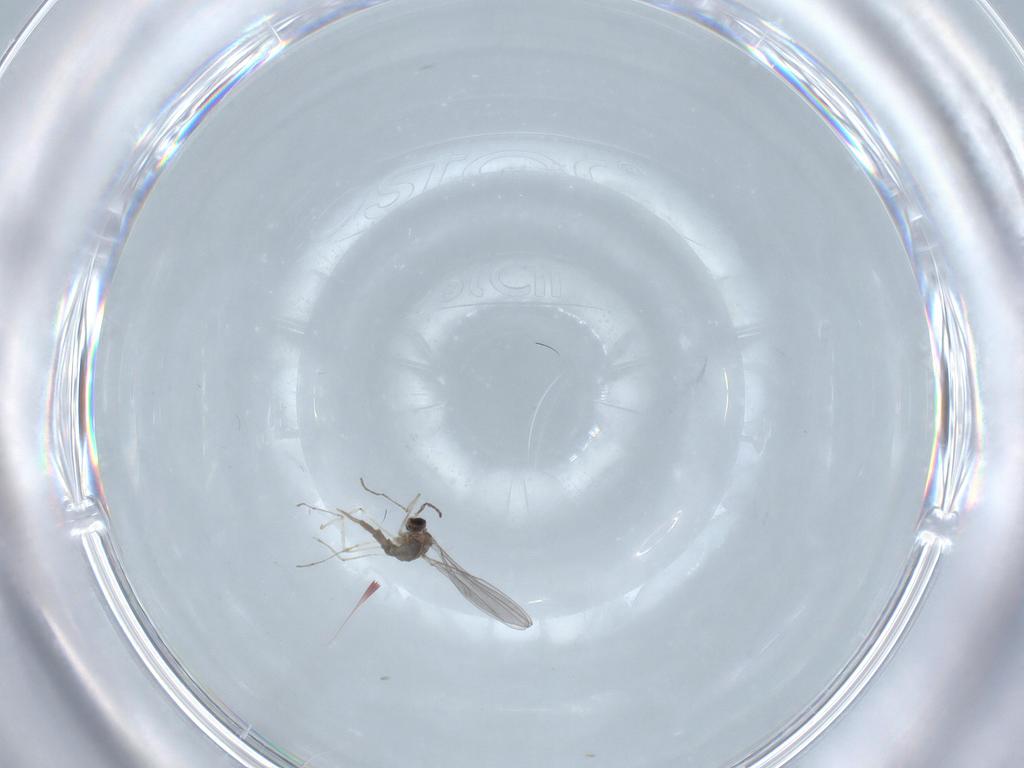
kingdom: Animalia
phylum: Arthropoda
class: Insecta
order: Diptera
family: Cecidomyiidae
